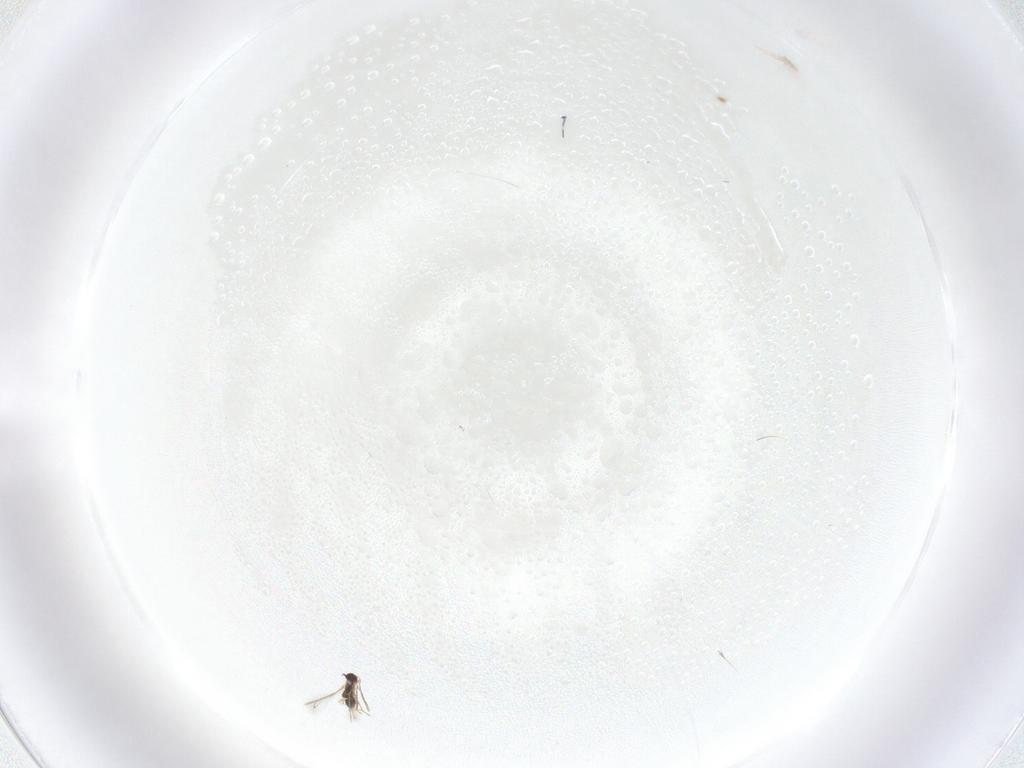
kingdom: Animalia
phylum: Arthropoda
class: Insecta
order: Hymenoptera
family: Mymaridae
